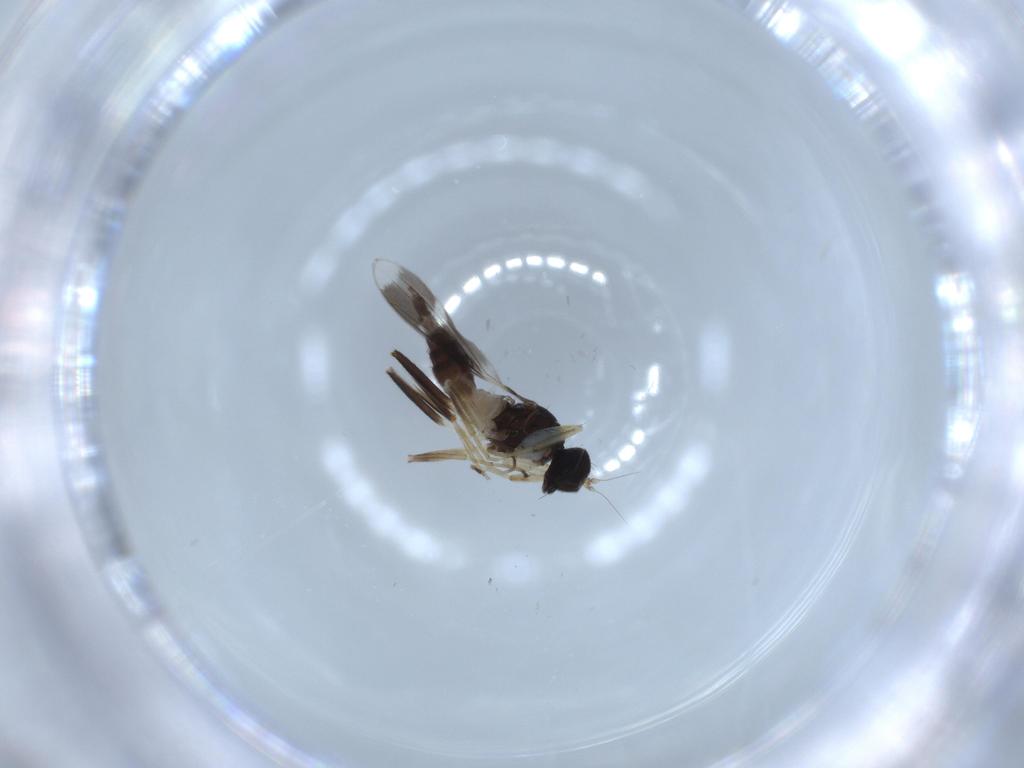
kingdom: Animalia
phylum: Arthropoda
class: Insecta
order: Diptera
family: Hybotidae
